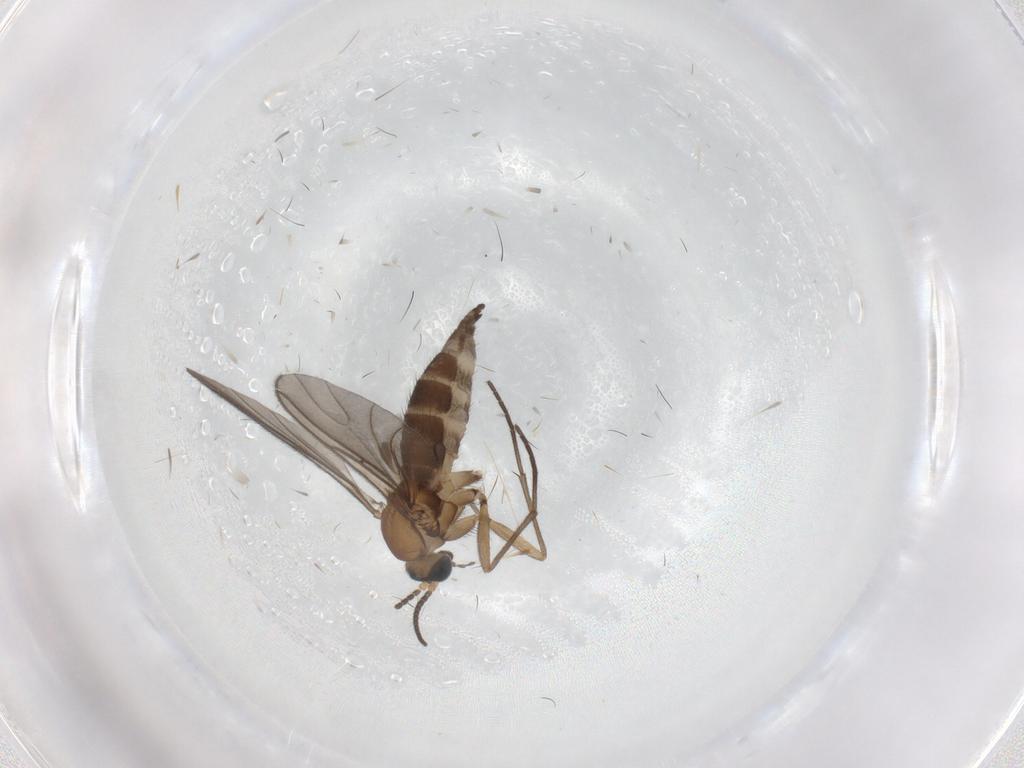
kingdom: Animalia
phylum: Arthropoda
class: Insecta
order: Diptera
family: Sciaridae
